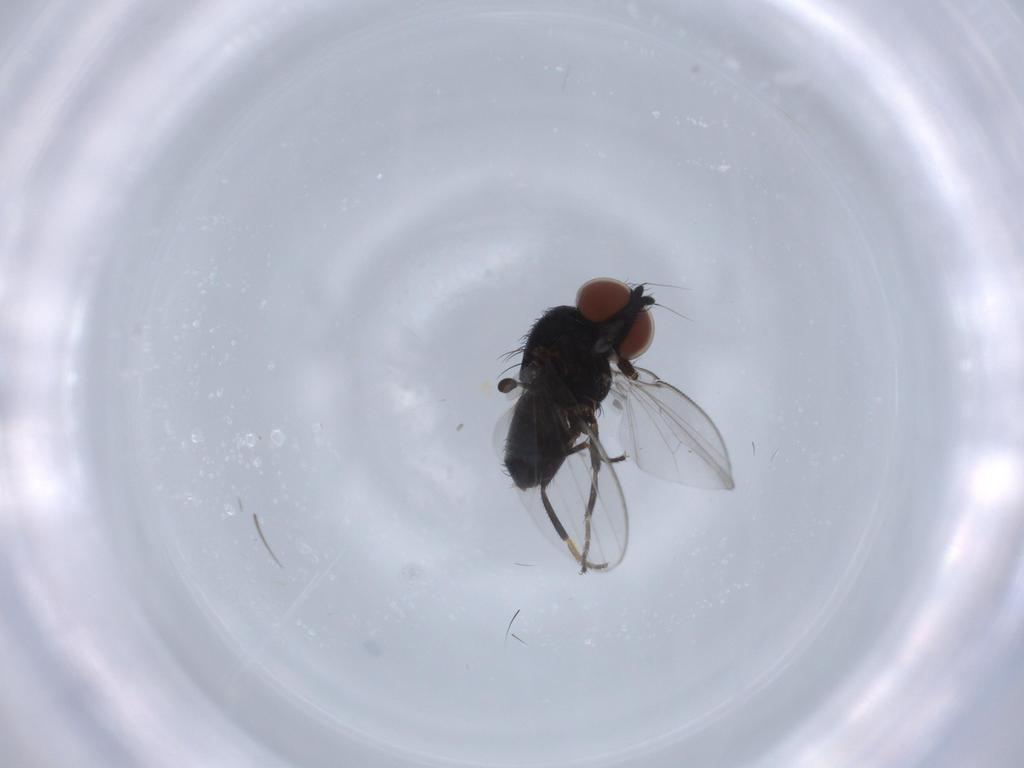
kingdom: Animalia
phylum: Arthropoda
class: Insecta
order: Diptera
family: Milichiidae
